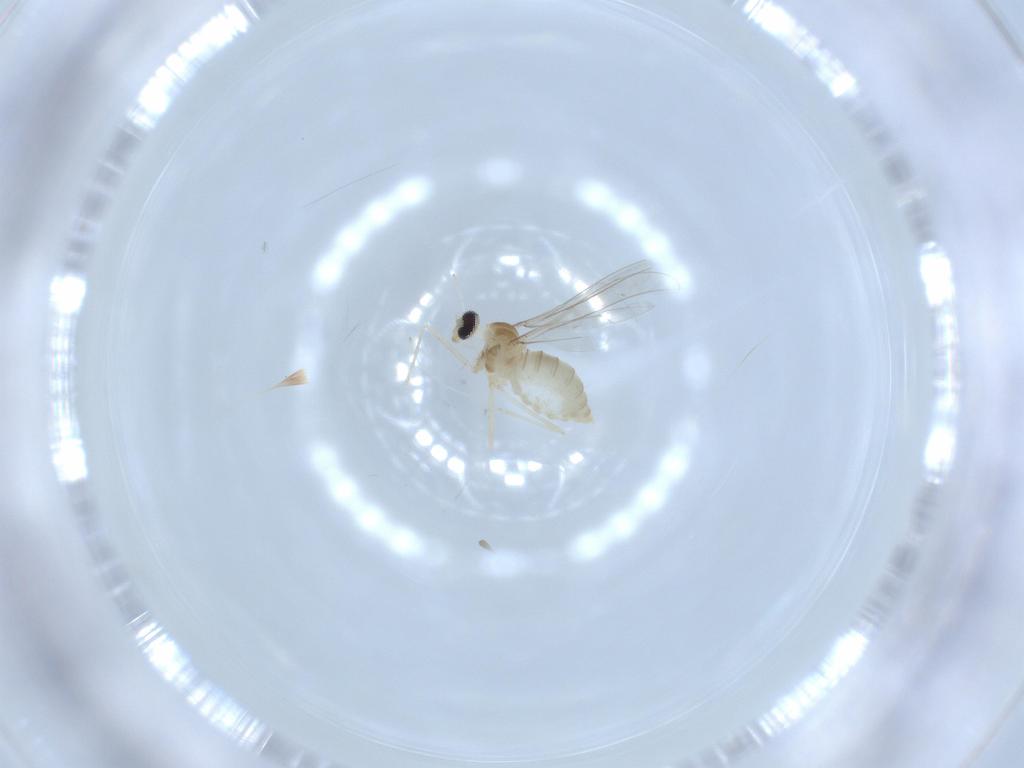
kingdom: Animalia
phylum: Arthropoda
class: Insecta
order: Diptera
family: Cecidomyiidae
